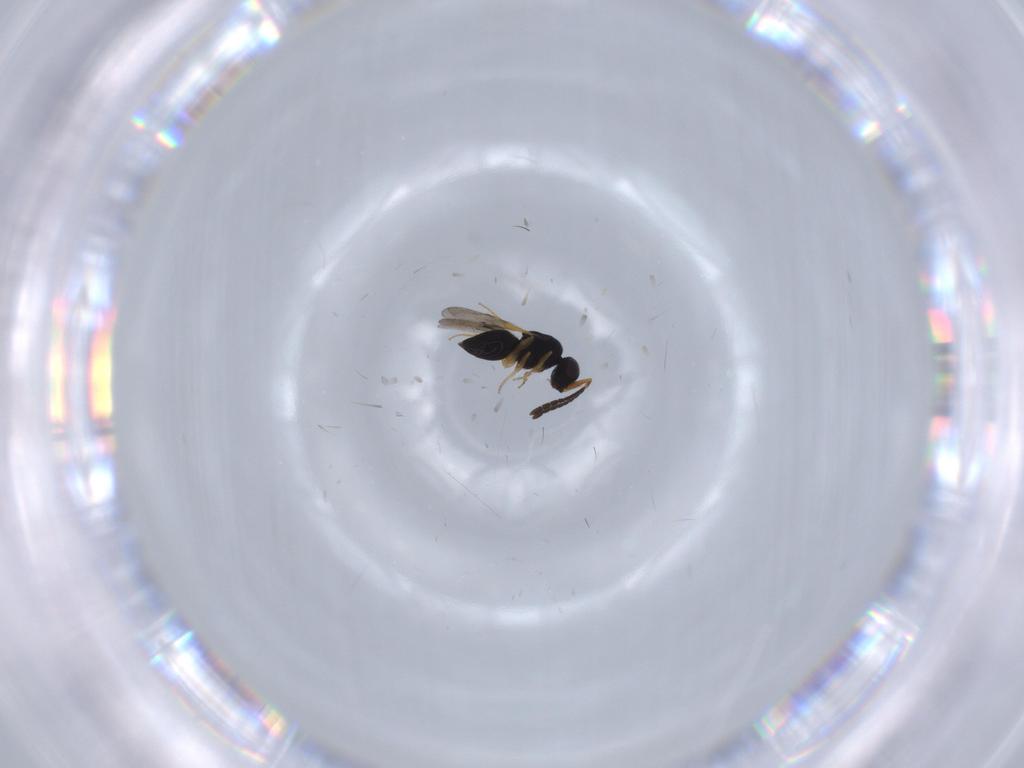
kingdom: Animalia
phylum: Arthropoda
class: Insecta
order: Hymenoptera
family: Ceraphronidae
